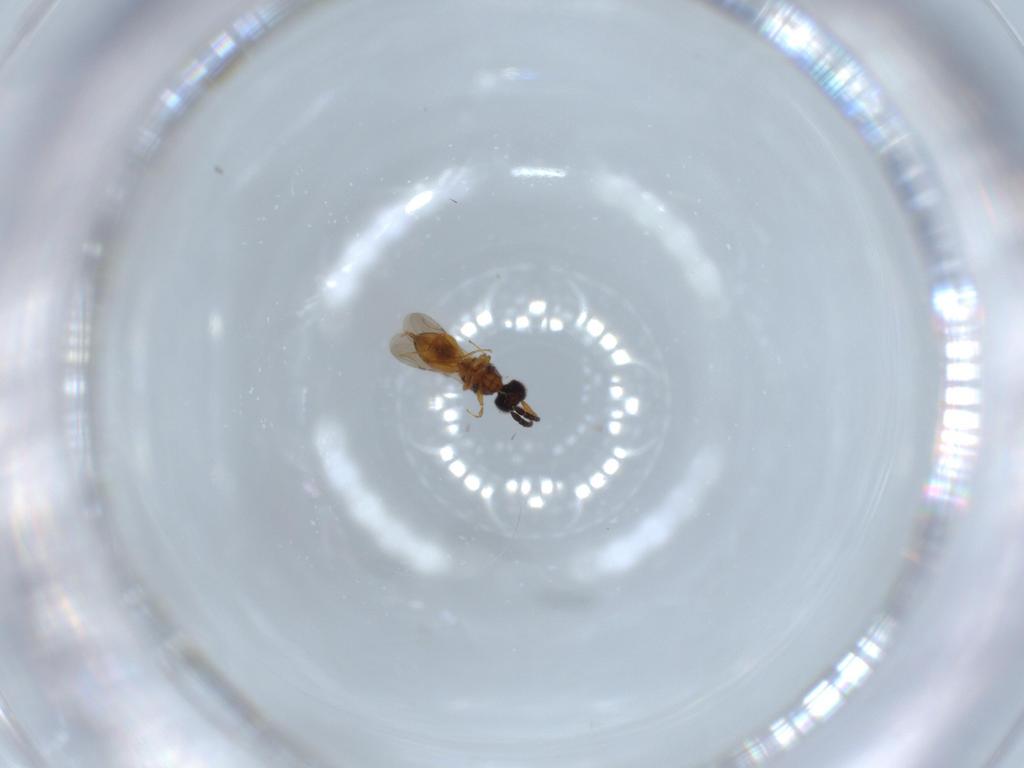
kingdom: Animalia
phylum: Arthropoda
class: Insecta
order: Hymenoptera
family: Ceraphronidae
